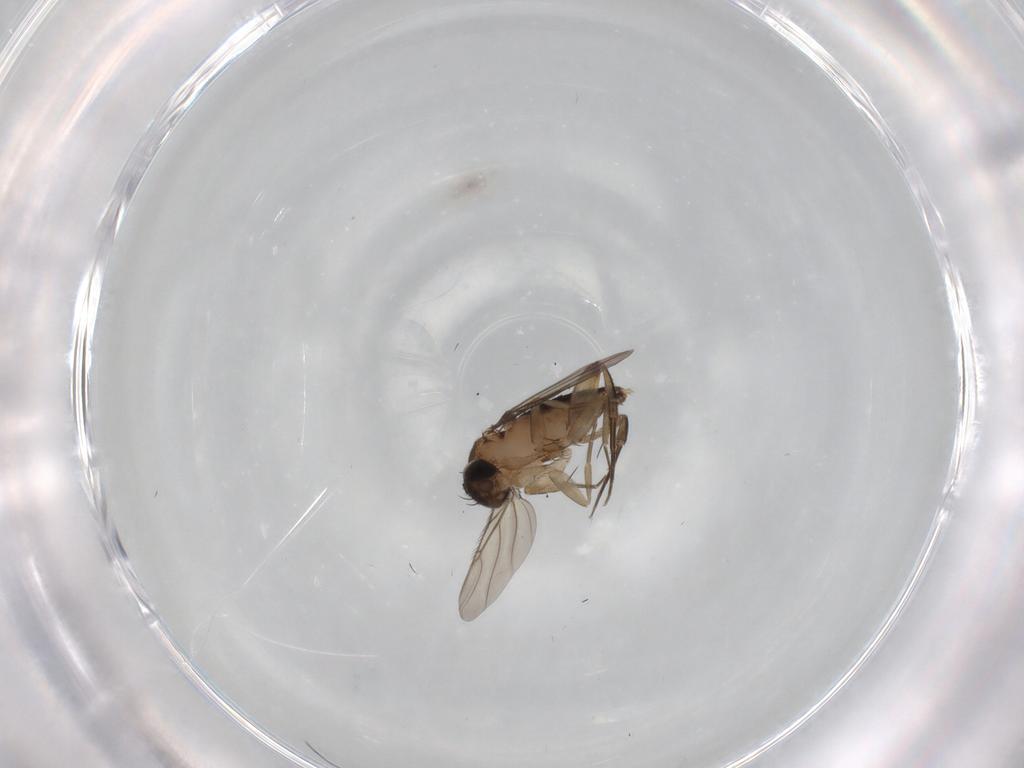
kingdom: Animalia
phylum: Arthropoda
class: Insecta
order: Diptera
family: Phoridae
